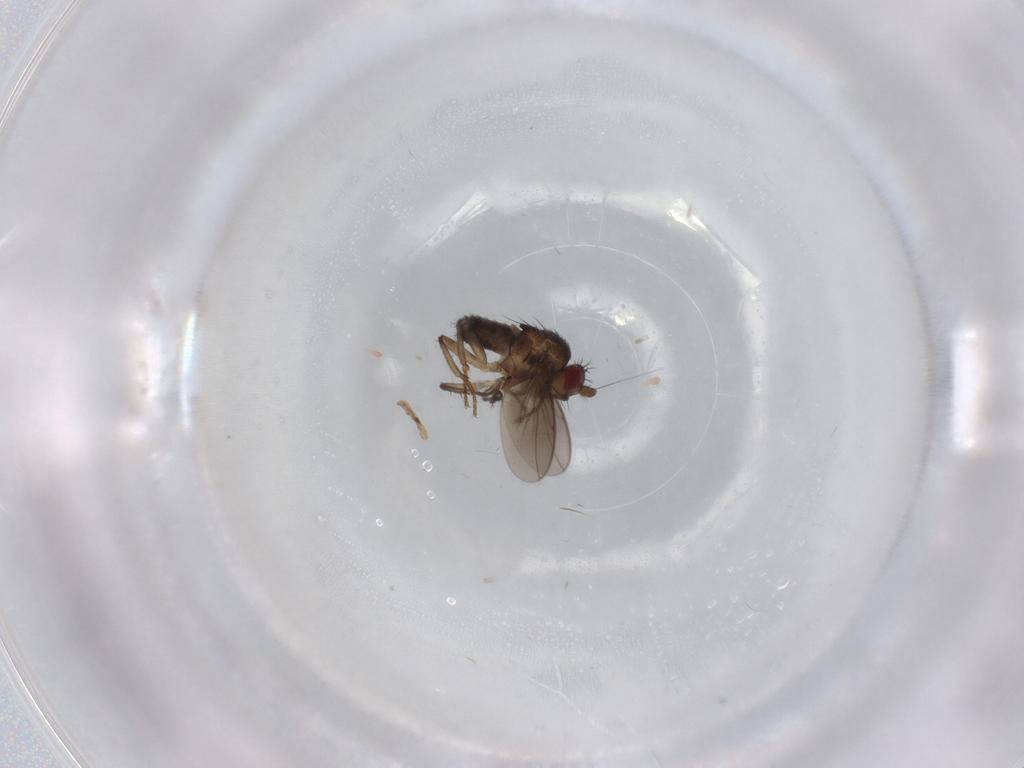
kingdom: Animalia
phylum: Arthropoda
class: Insecta
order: Diptera
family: Sphaeroceridae
